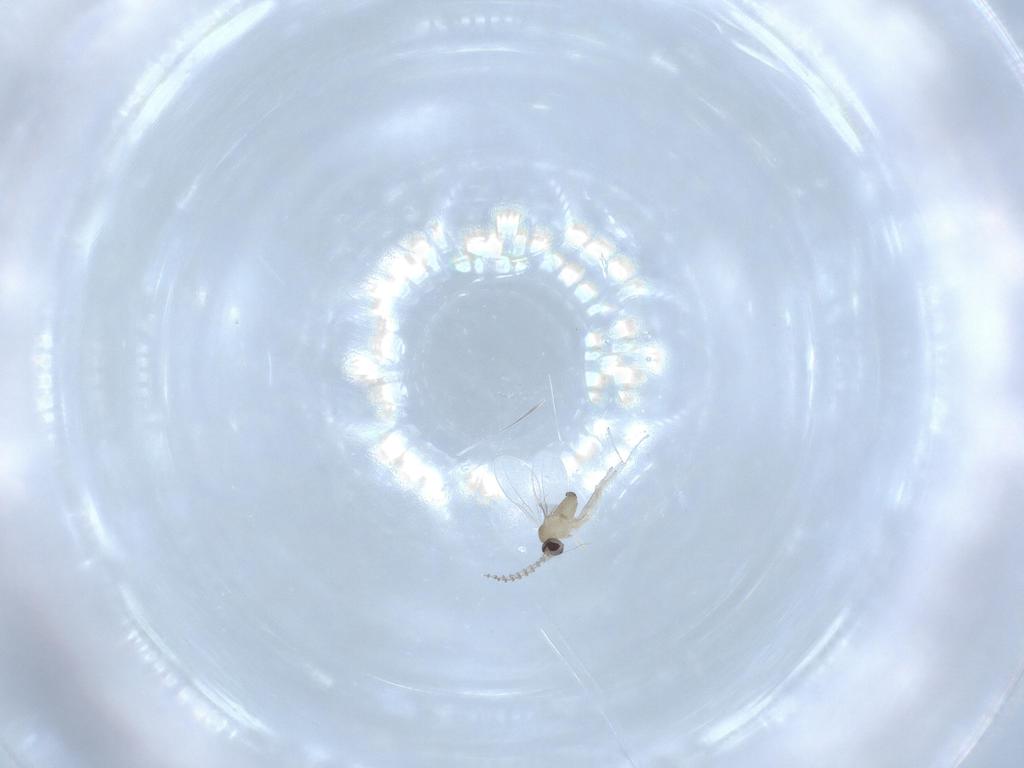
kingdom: Animalia
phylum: Arthropoda
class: Insecta
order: Diptera
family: Cecidomyiidae
